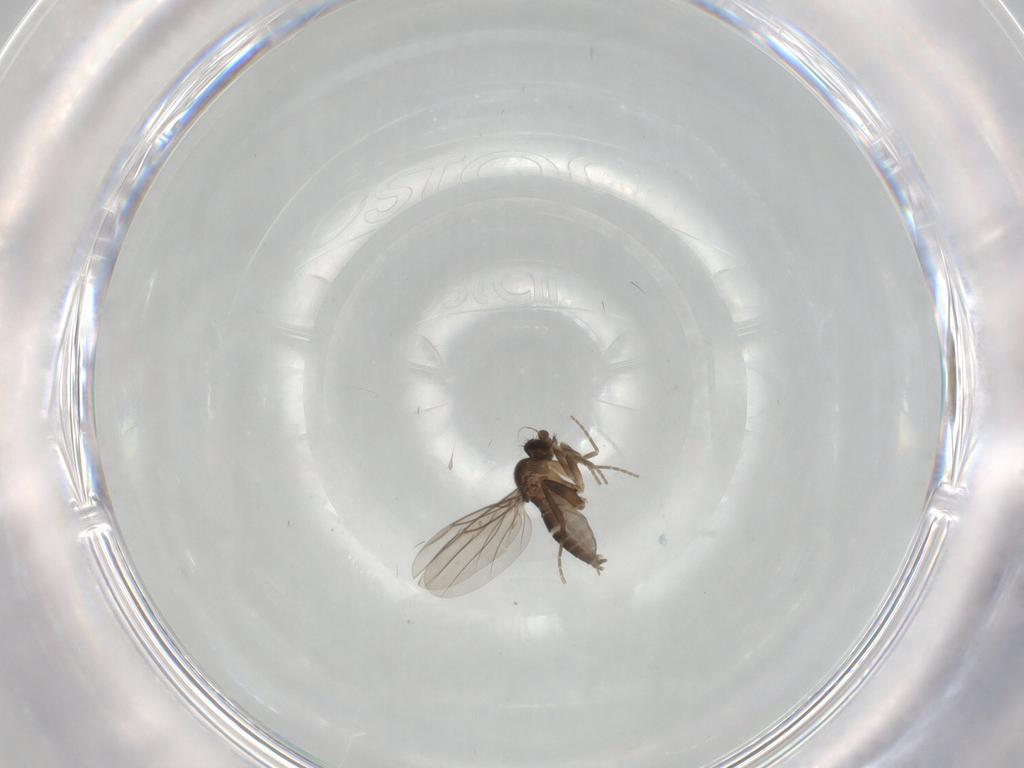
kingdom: Animalia
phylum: Arthropoda
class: Insecta
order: Diptera
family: Phoridae
